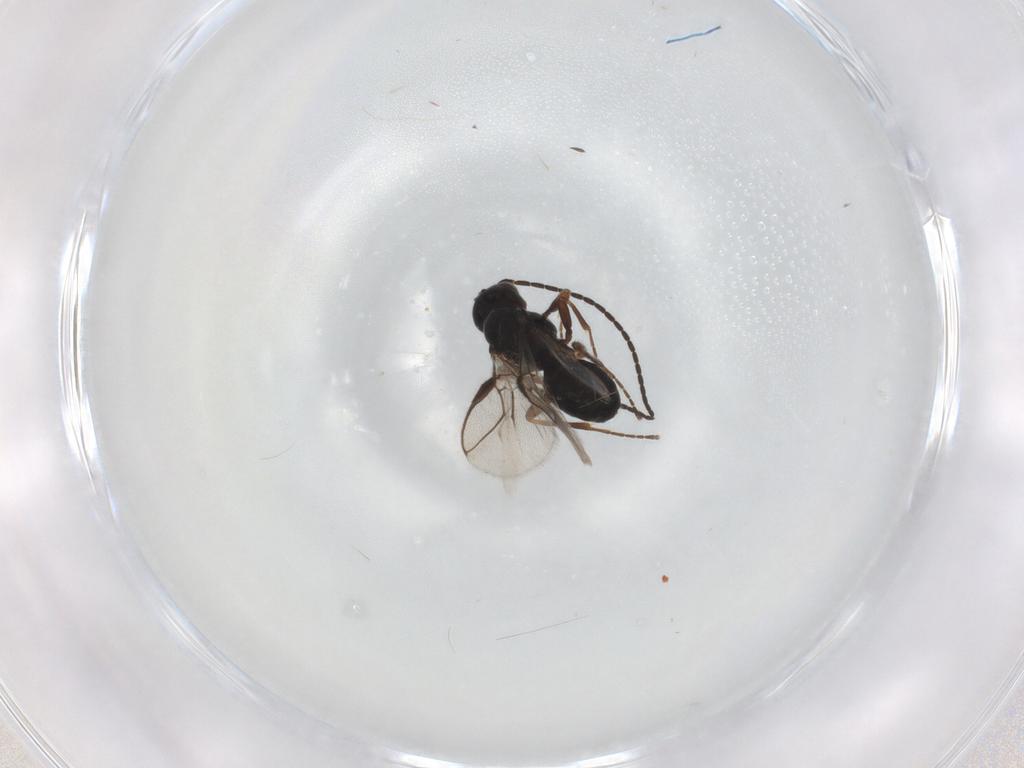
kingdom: Animalia
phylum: Arthropoda
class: Insecta
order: Hymenoptera
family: Braconidae
